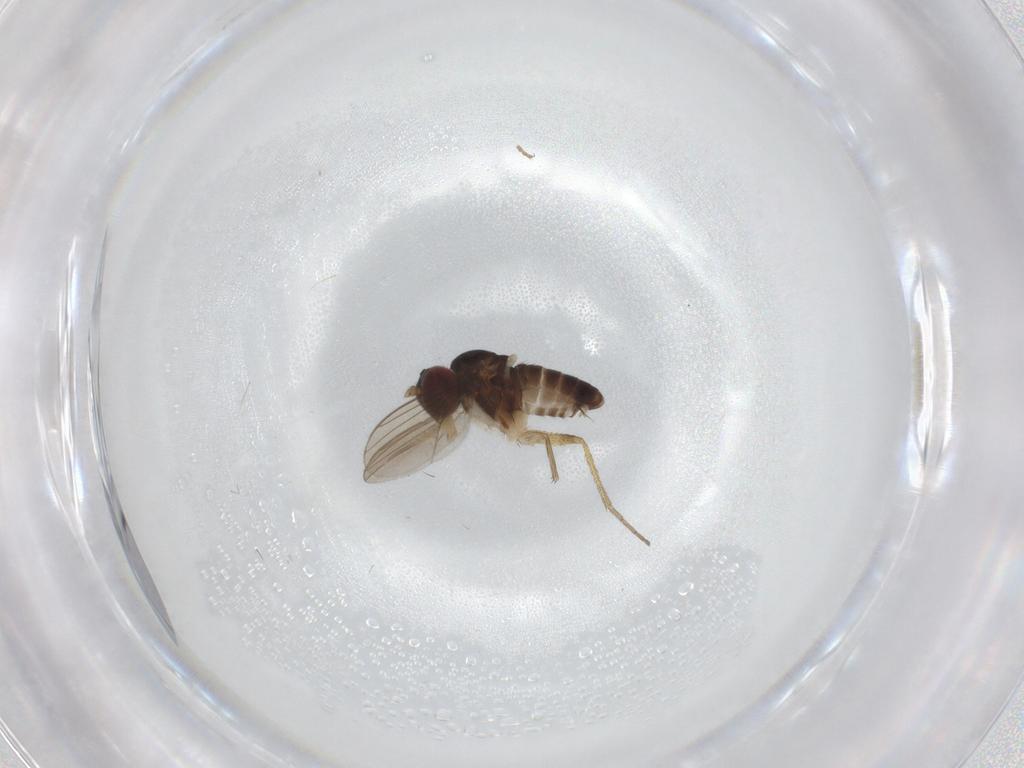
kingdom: Animalia
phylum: Arthropoda
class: Insecta
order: Diptera
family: Dolichopodidae
